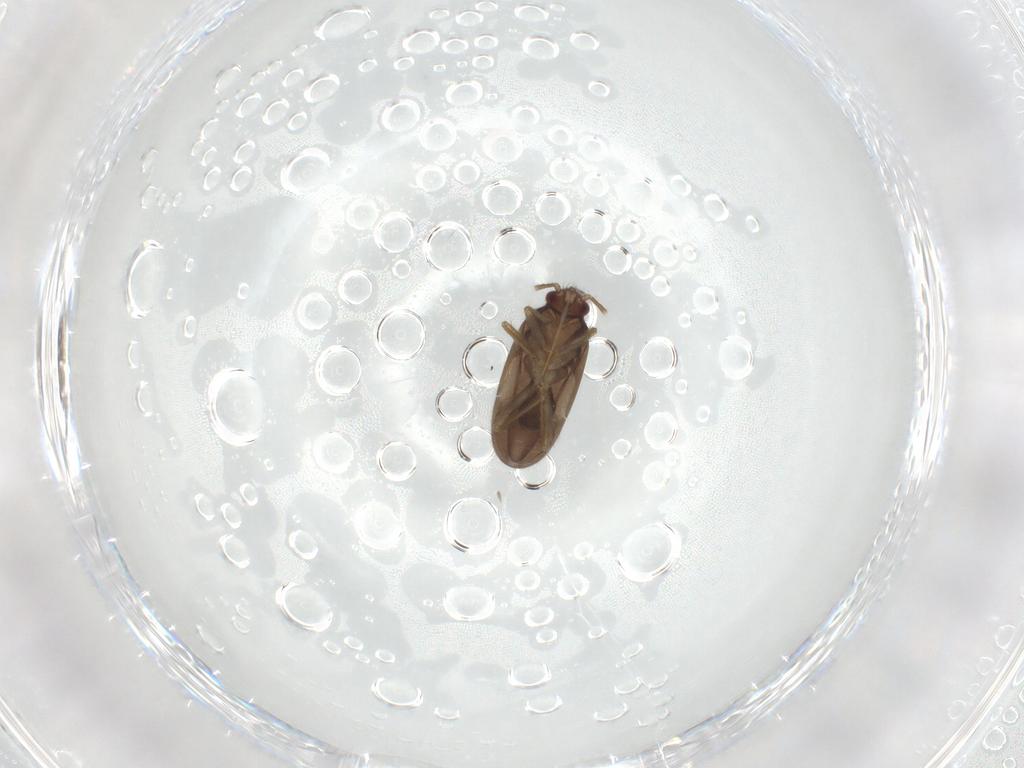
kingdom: Animalia
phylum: Arthropoda
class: Insecta
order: Hemiptera
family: Ceratocombidae
